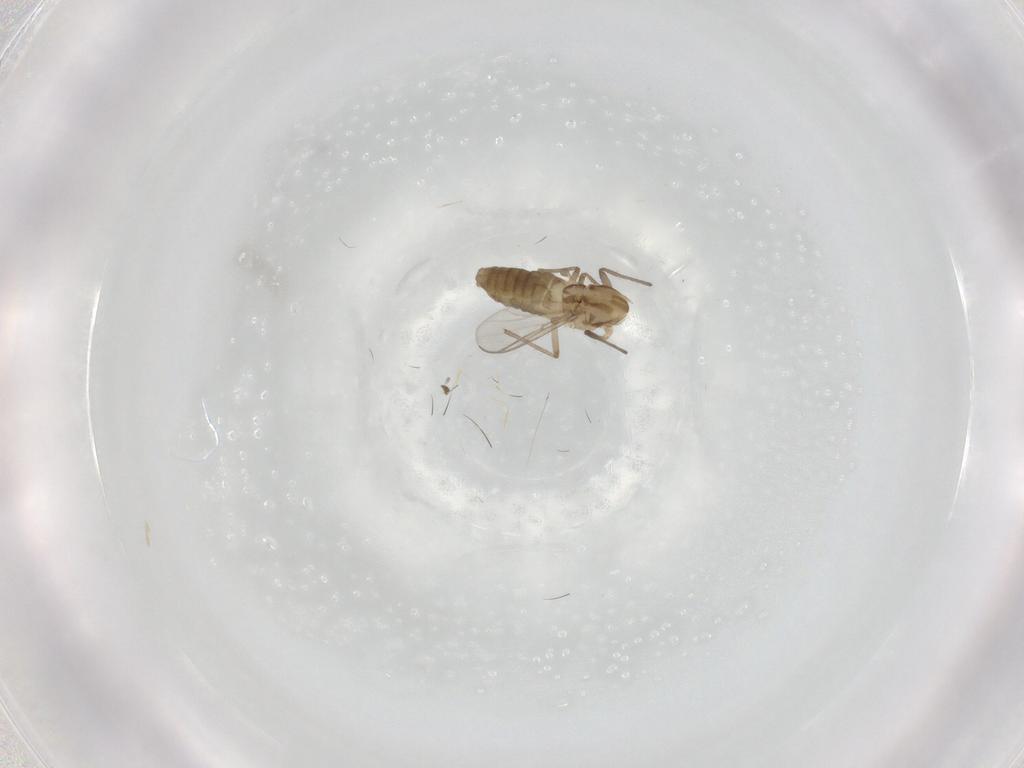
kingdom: Animalia
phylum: Arthropoda
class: Insecta
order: Diptera
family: Chironomidae
